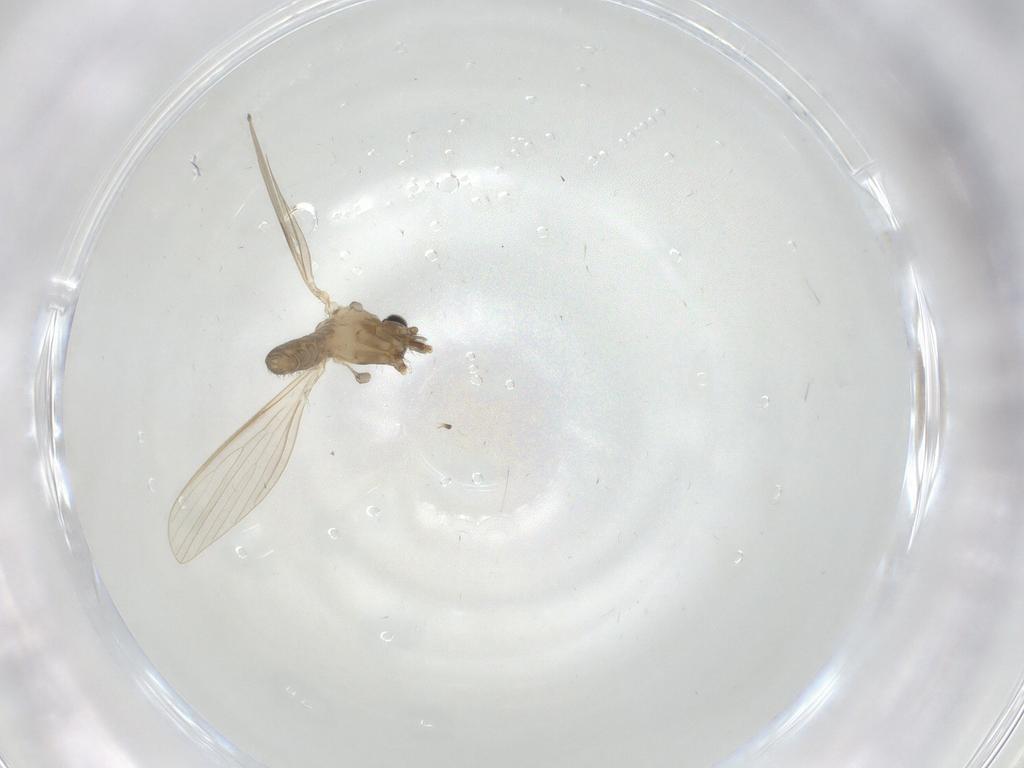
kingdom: Animalia
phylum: Arthropoda
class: Insecta
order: Diptera
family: Psychodidae
